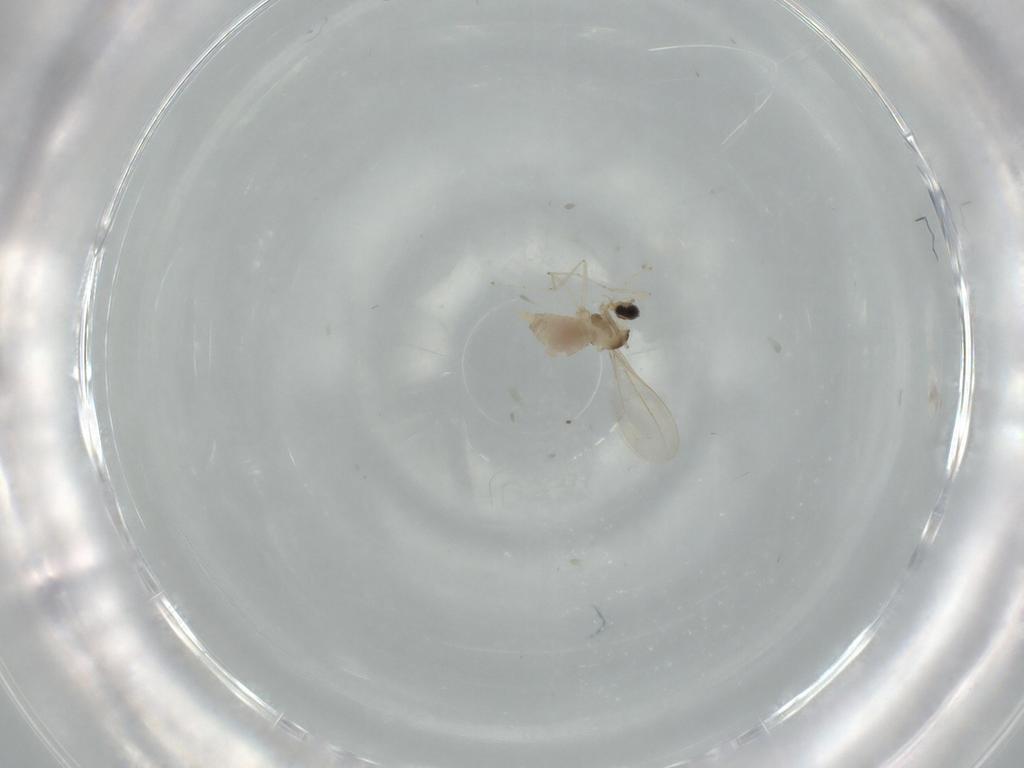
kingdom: Animalia
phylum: Arthropoda
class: Insecta
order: Diptera
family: Cecidomyiidae
